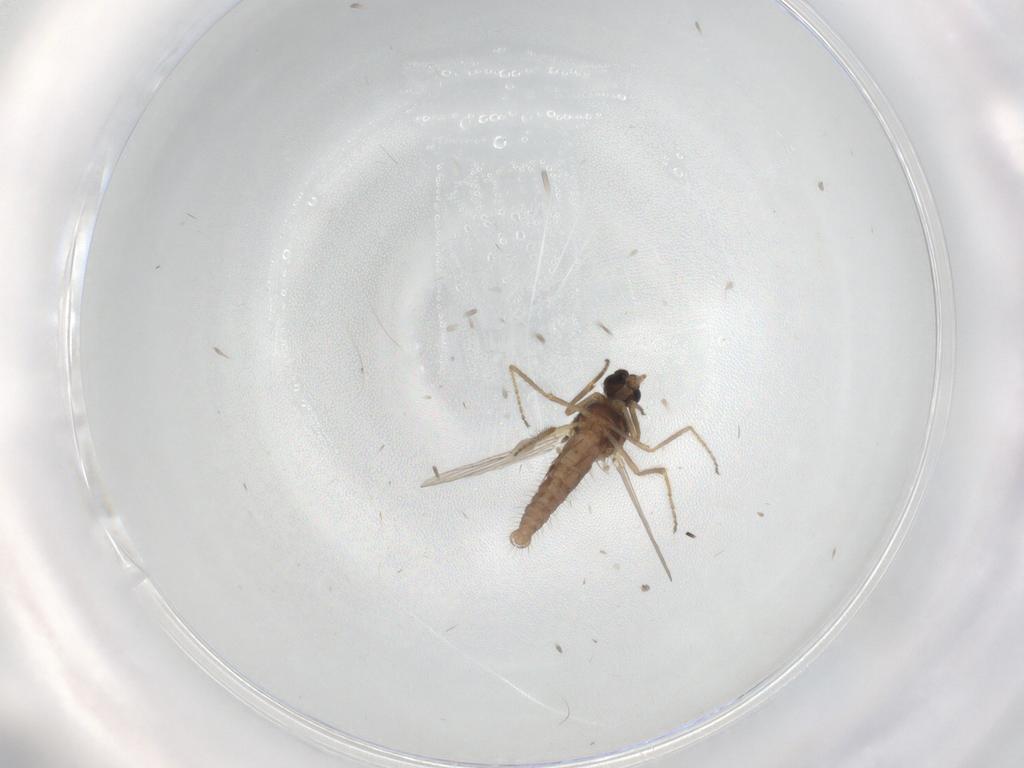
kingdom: Animalia
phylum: Arthropoda
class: Insecta
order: Diptera
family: Ceratopogonidae
